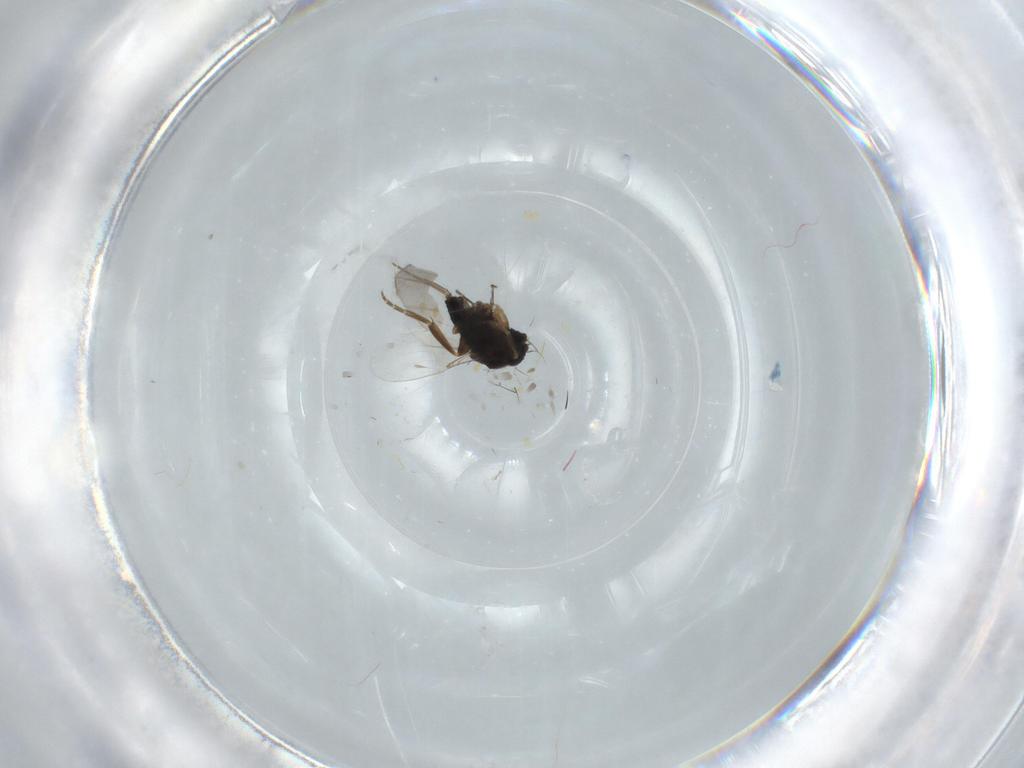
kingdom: Animalia
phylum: Arthropoda
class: Insecta
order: Diptera
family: Phoridae
